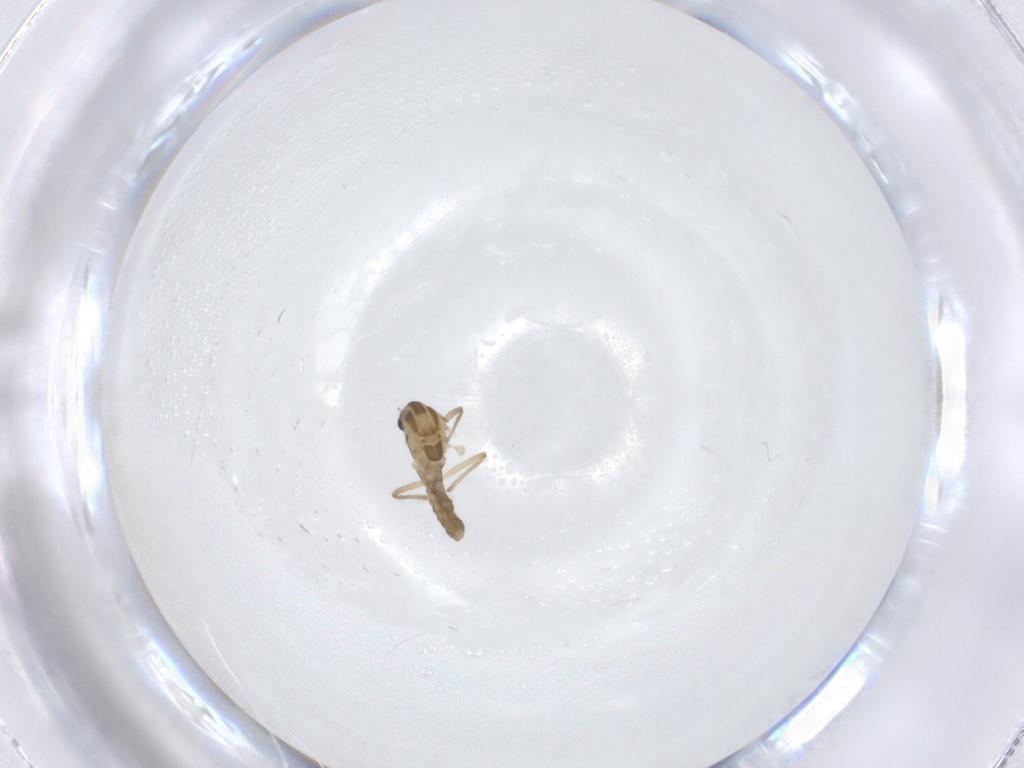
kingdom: Animalia
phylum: Arthropoda
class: Insecta
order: Diptera
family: Chironomidae
